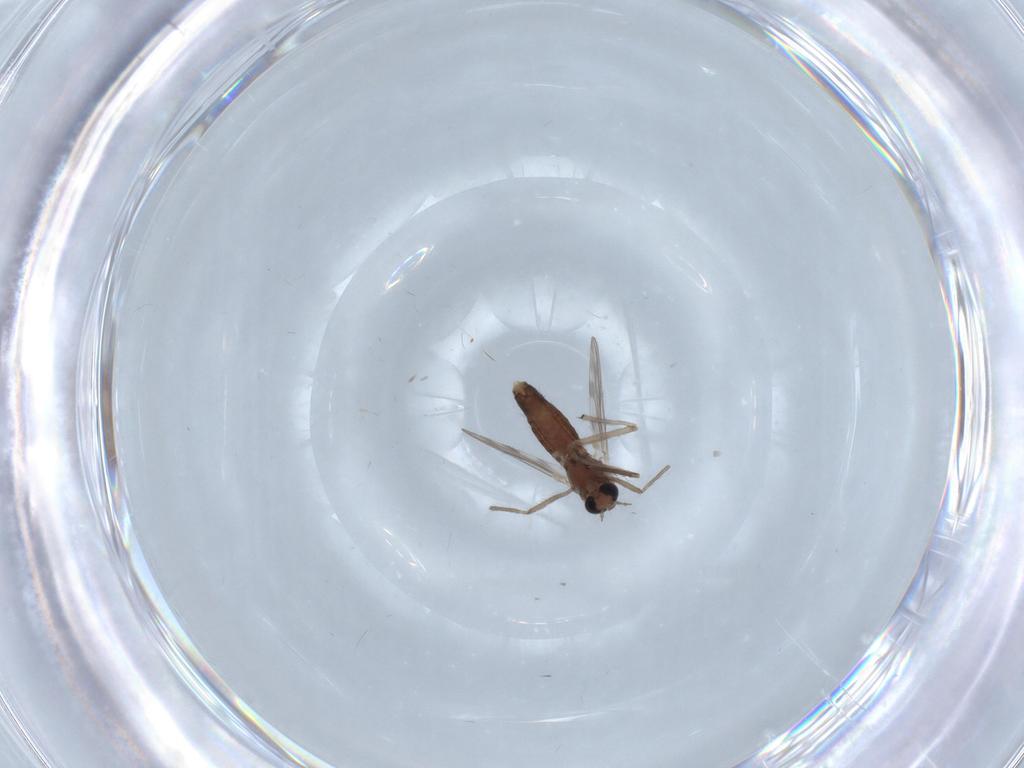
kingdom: Animalia
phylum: Arthropoda
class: Insecta
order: Diptera
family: Chironomidae
